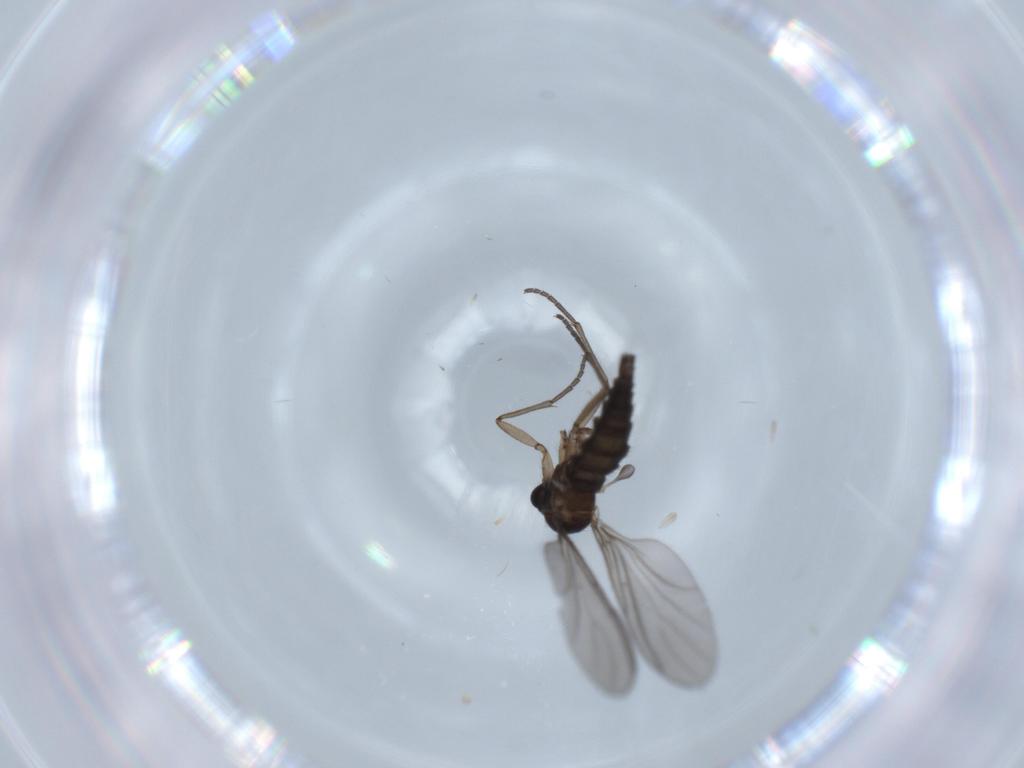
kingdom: Animalia
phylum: Arthropoda
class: Insecta
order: Diptera
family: Sciaridae
